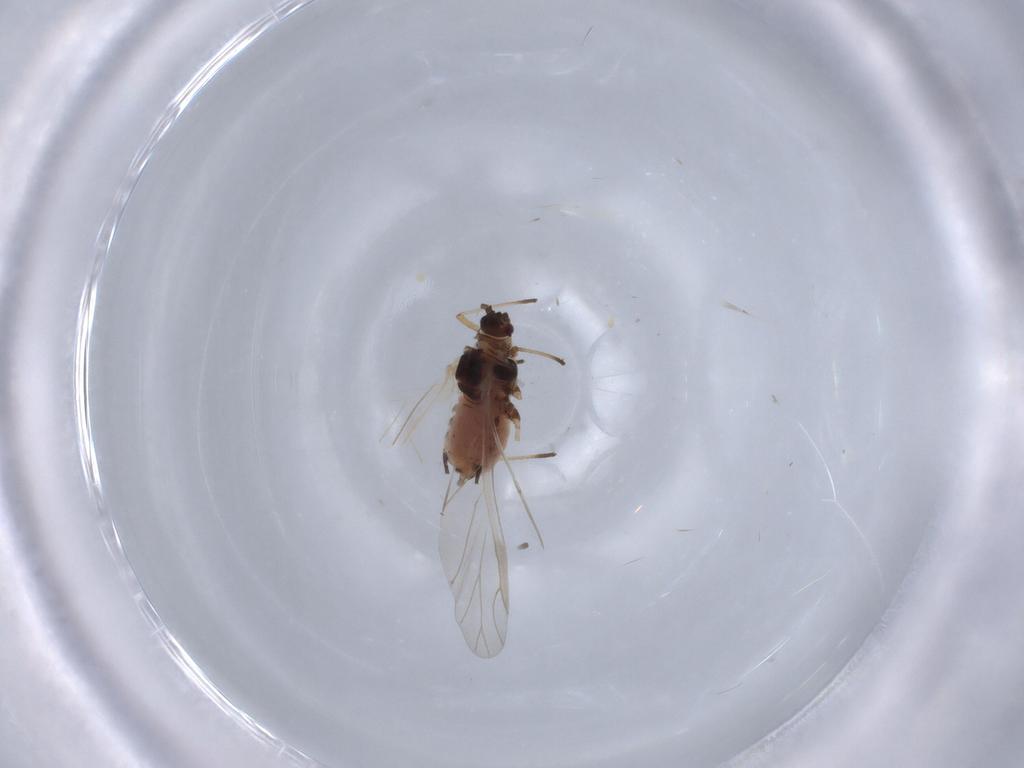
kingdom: Animalia
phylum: Arthropoda
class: Insecta
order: Hemiptera
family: Aphididae
